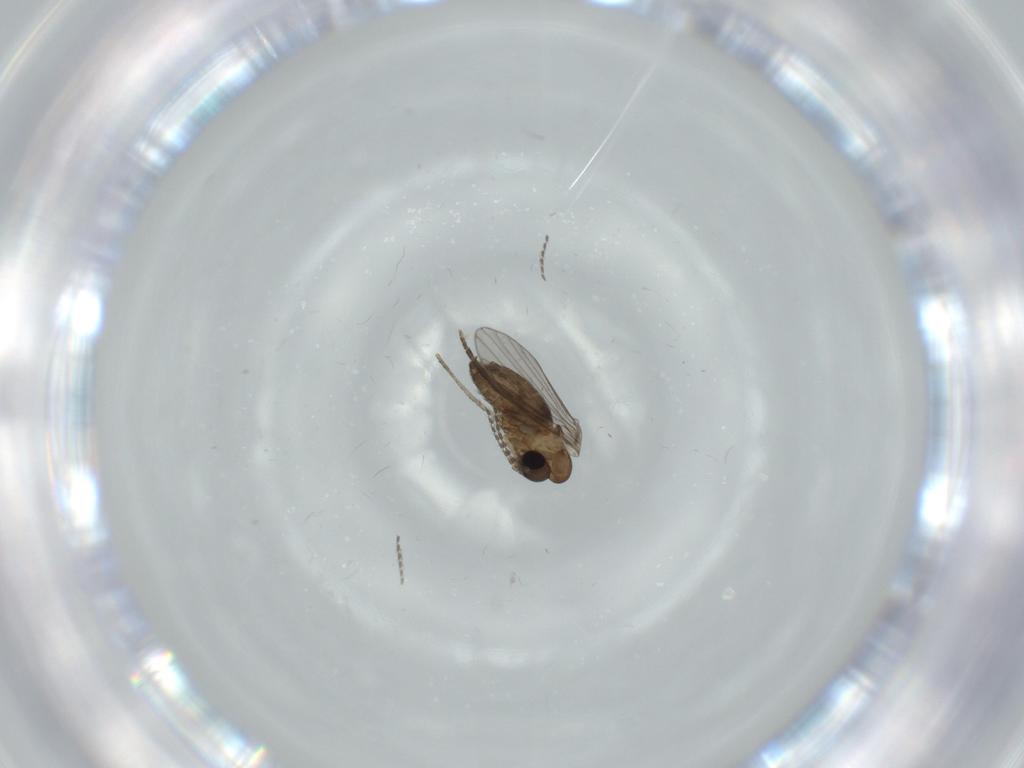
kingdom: Animalia
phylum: Arthropoda
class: Insecta
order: Diptera
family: Psychodidae
